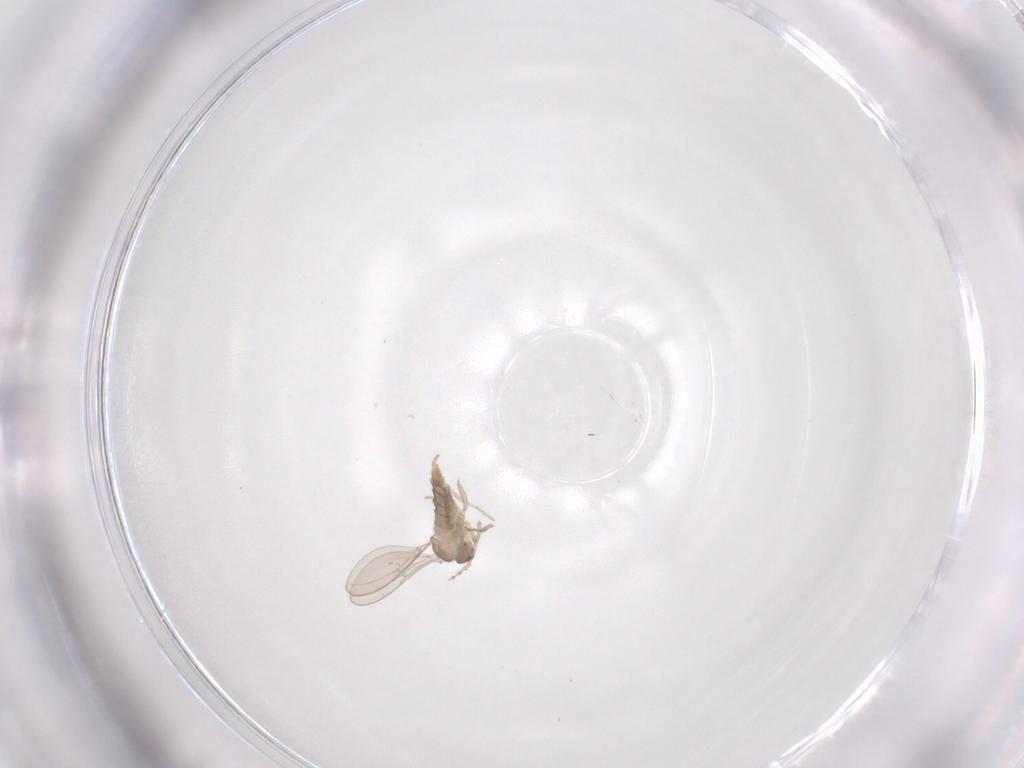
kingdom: Animalia
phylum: Arthropoda
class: Insecta
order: Diptera
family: Cecidomyiidae
